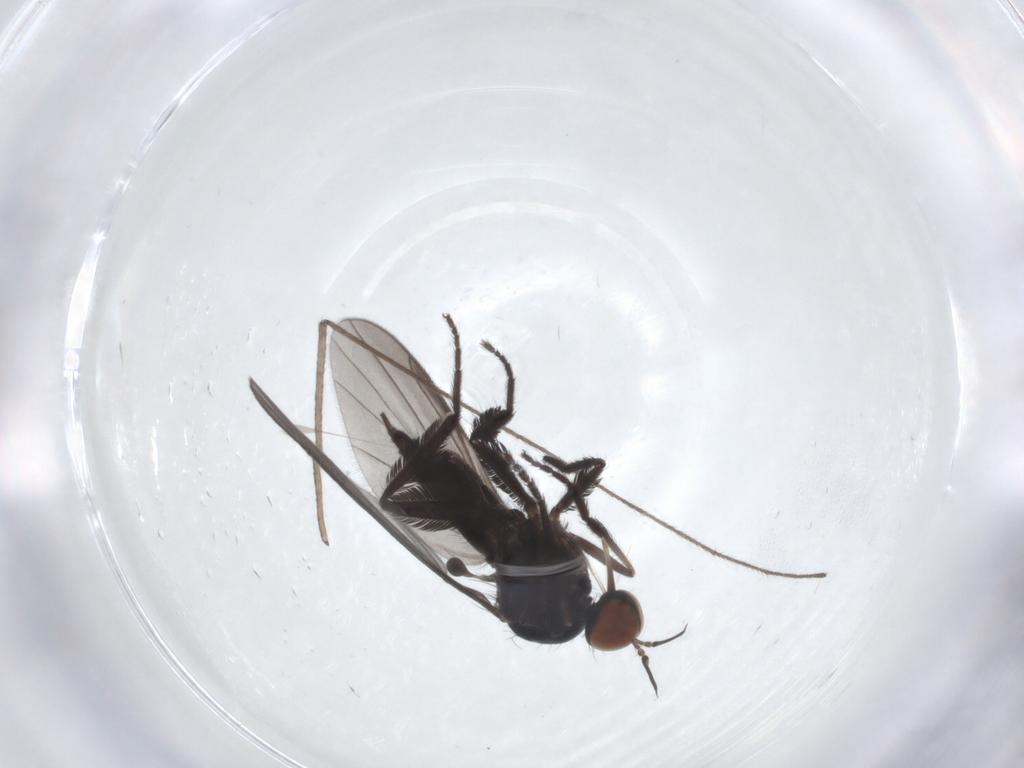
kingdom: Animalia
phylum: Arthropoda
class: Insecta
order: Diptera
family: Empididae
